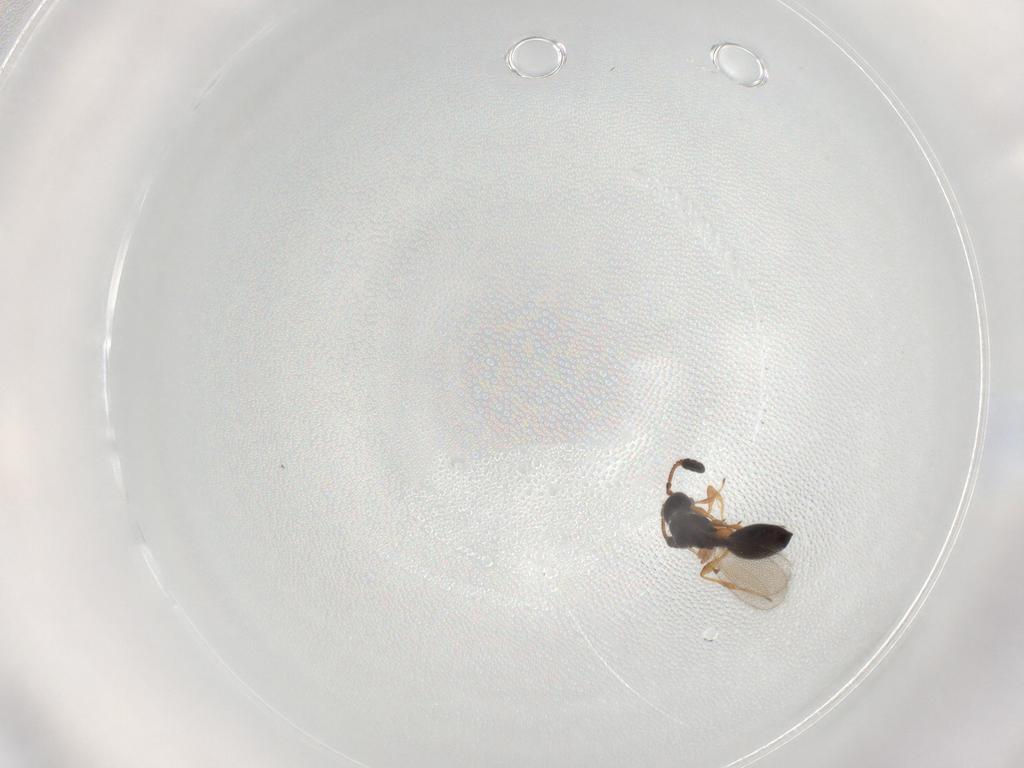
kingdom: Animalia
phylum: Arthropoda
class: Insecta
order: Hymenoptera
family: Diapriidae
